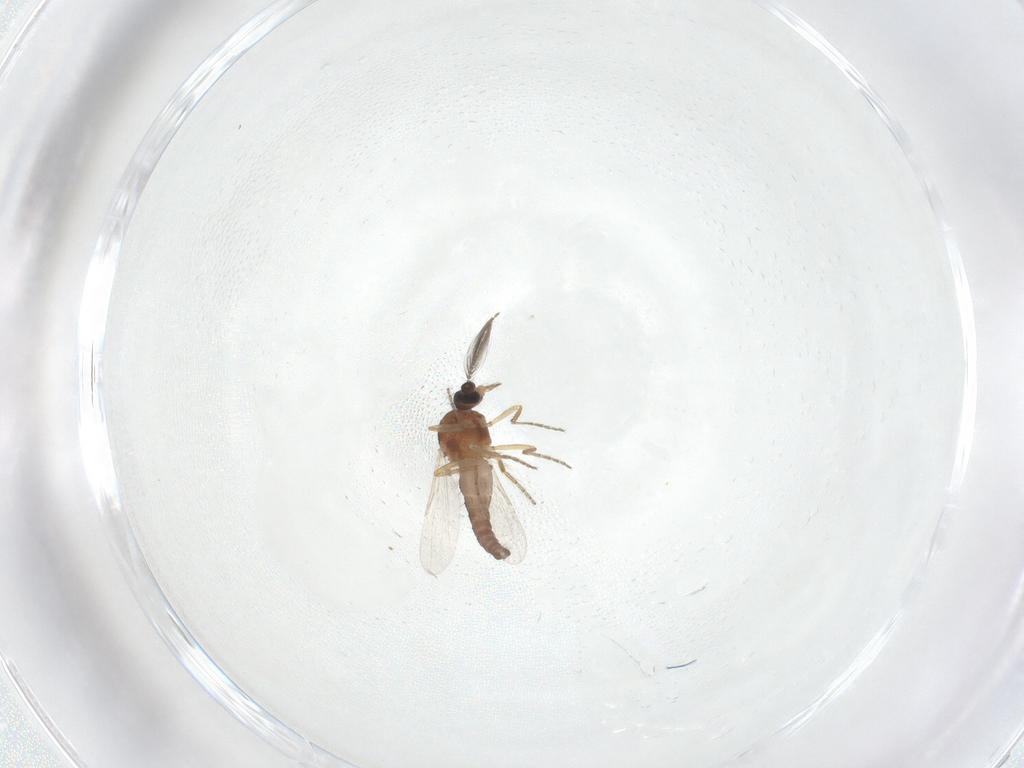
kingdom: Animalia
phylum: Arthropoda
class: Insecta
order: Diptera
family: Ceratopogonidae
